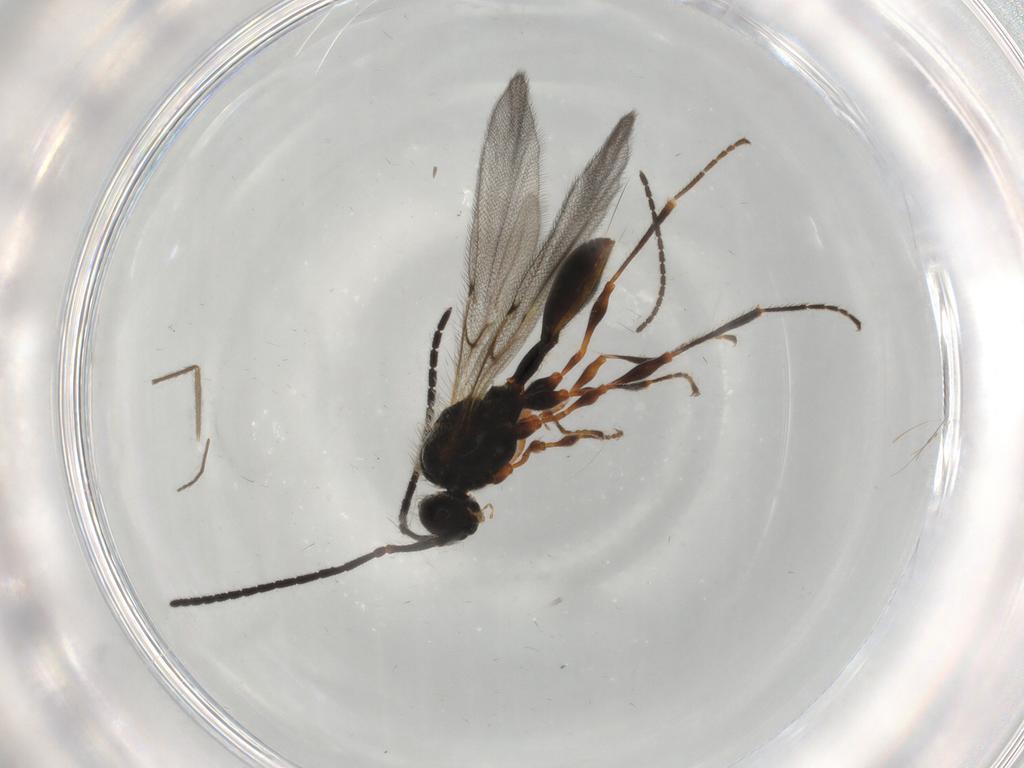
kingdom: Animalia
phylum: Arthropoda
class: Insecta
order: Hymenoptera
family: Diapriidae
